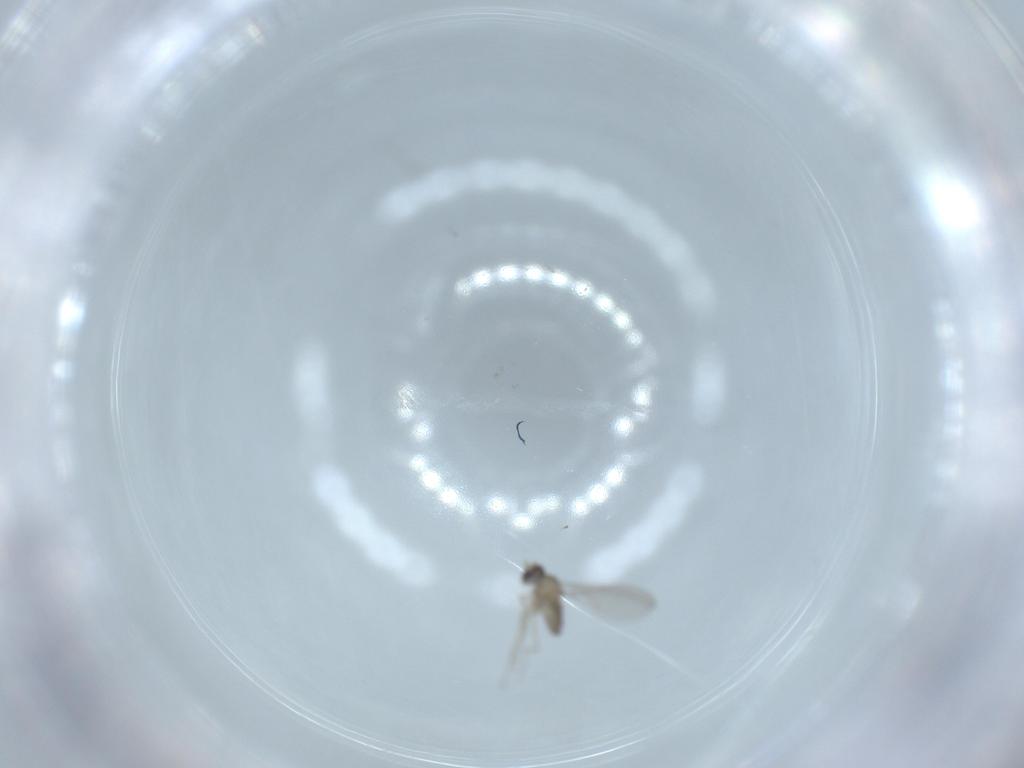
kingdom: Animalia
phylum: Arthropoda
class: Insecta
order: Diptera
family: Cecidomyiidae
